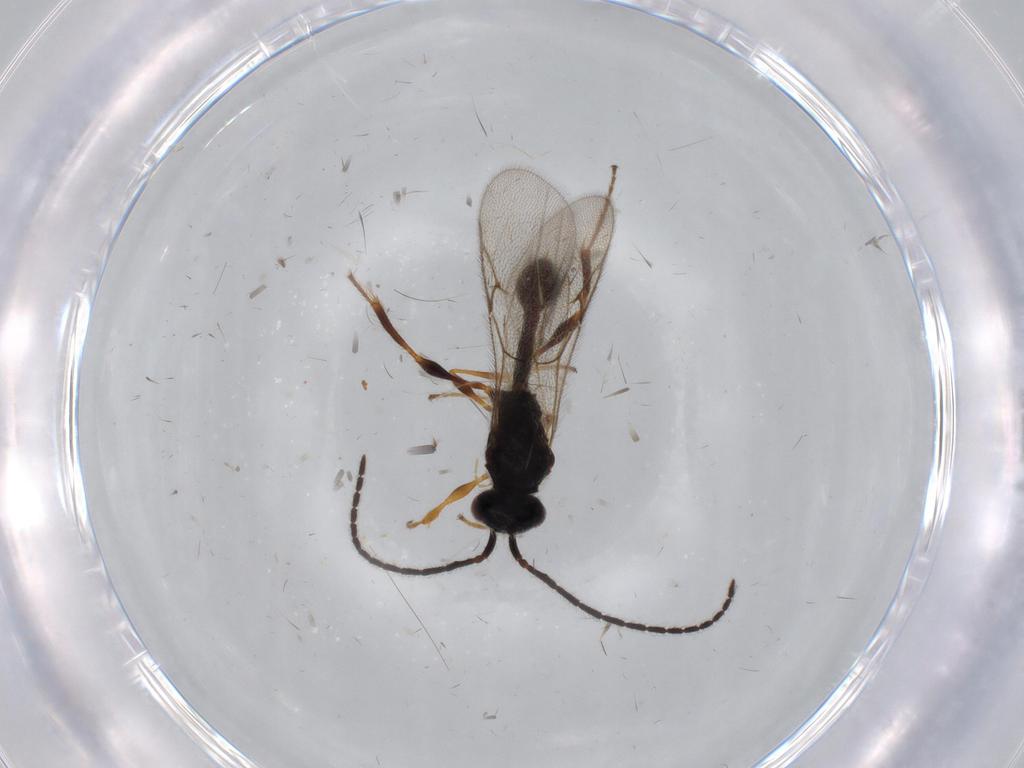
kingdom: Animalia
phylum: Arthropoda
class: Insecta
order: Hymenoptera
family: Diapriidae
